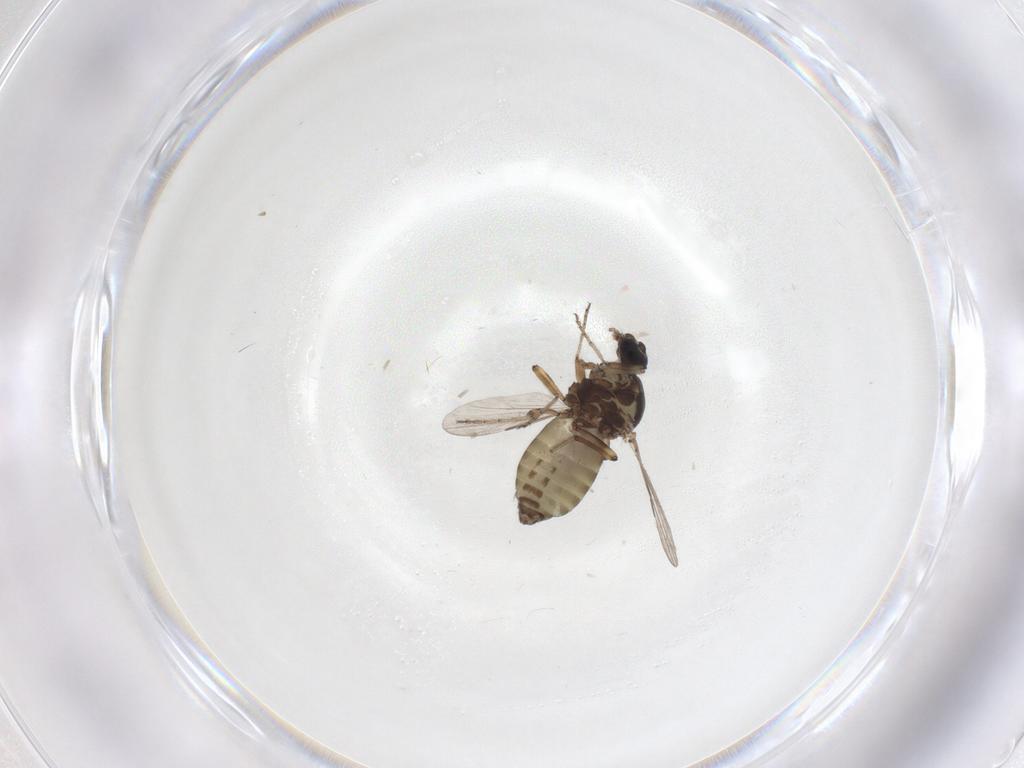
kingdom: Animalia
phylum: Arthropoda
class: Insecta
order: Diptera
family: Ceratopogonidae
